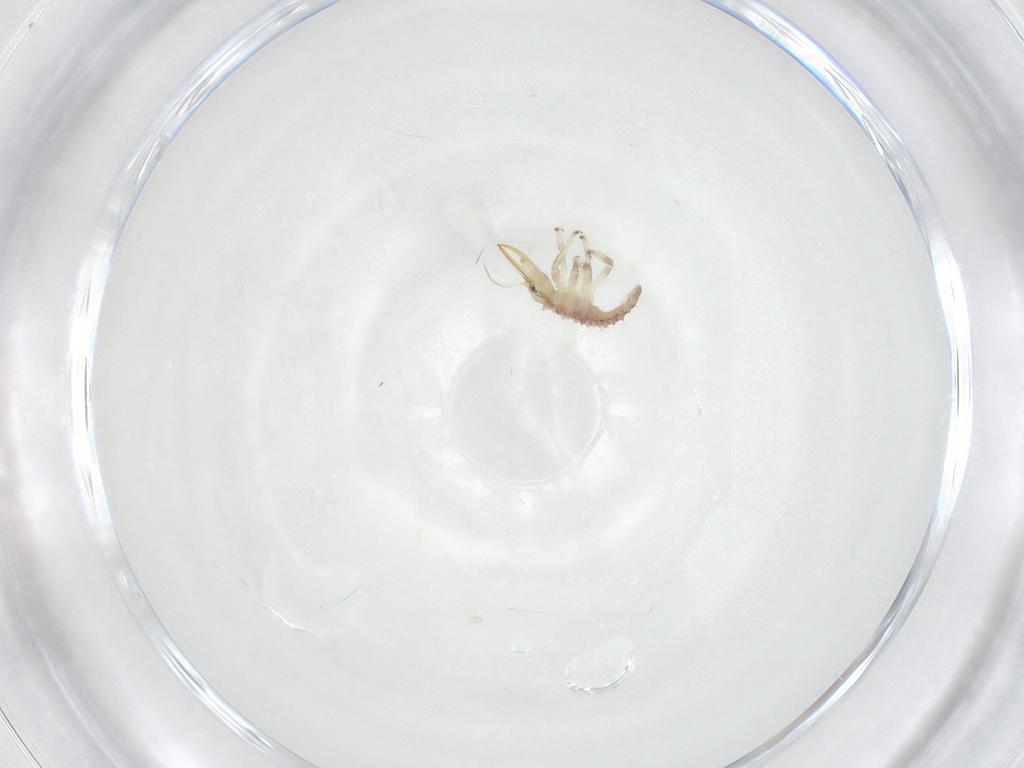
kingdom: Animalia
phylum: Arthropoda
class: Insecta
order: Neuroptera
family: Chrysopidae
